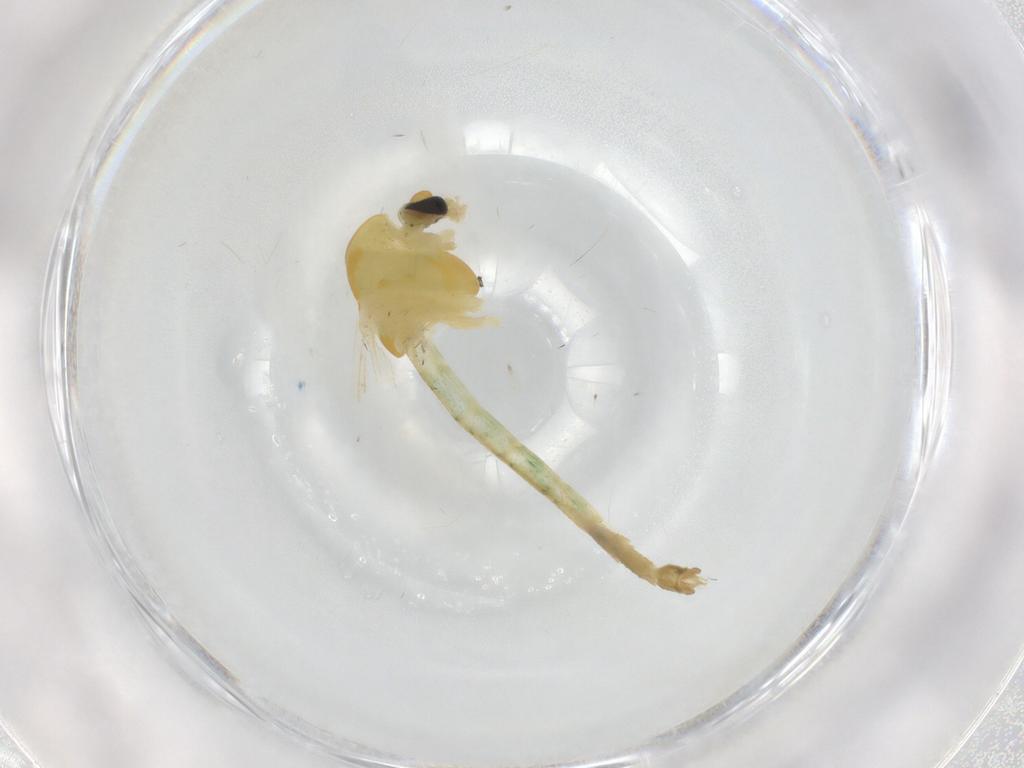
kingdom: Animalia
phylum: Arthropoda
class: Insecta
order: Diptera
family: Chironomidae
